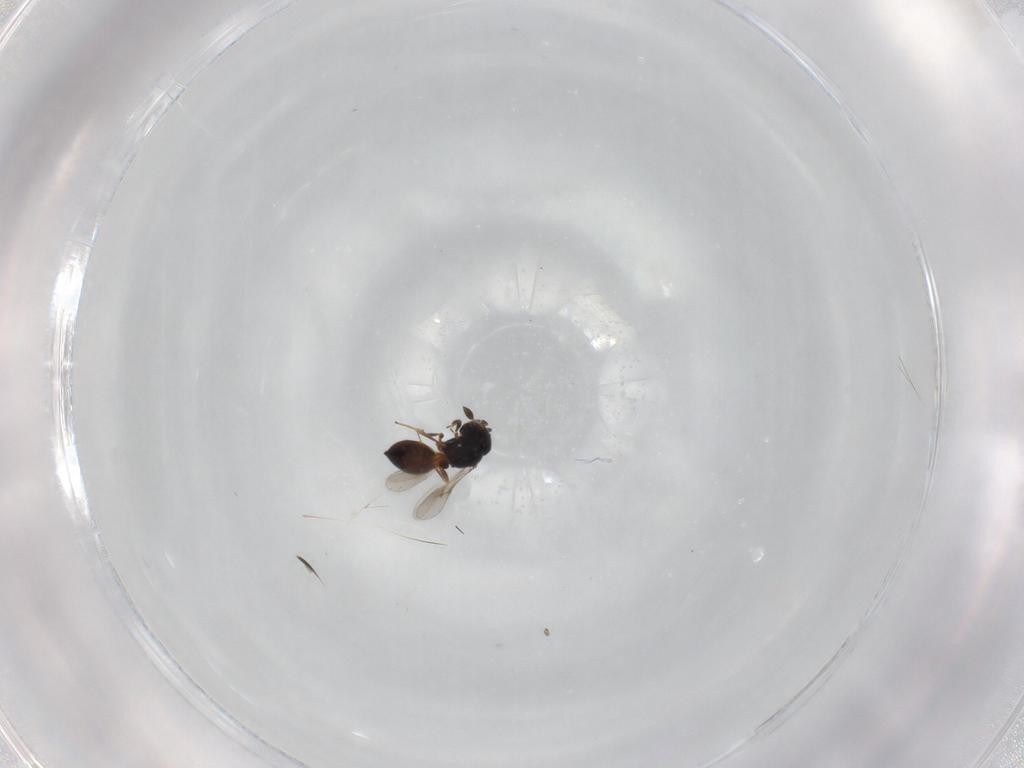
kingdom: Animalia
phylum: Arthropoda
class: Insecta
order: Hymenoptera
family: Scelionidae
